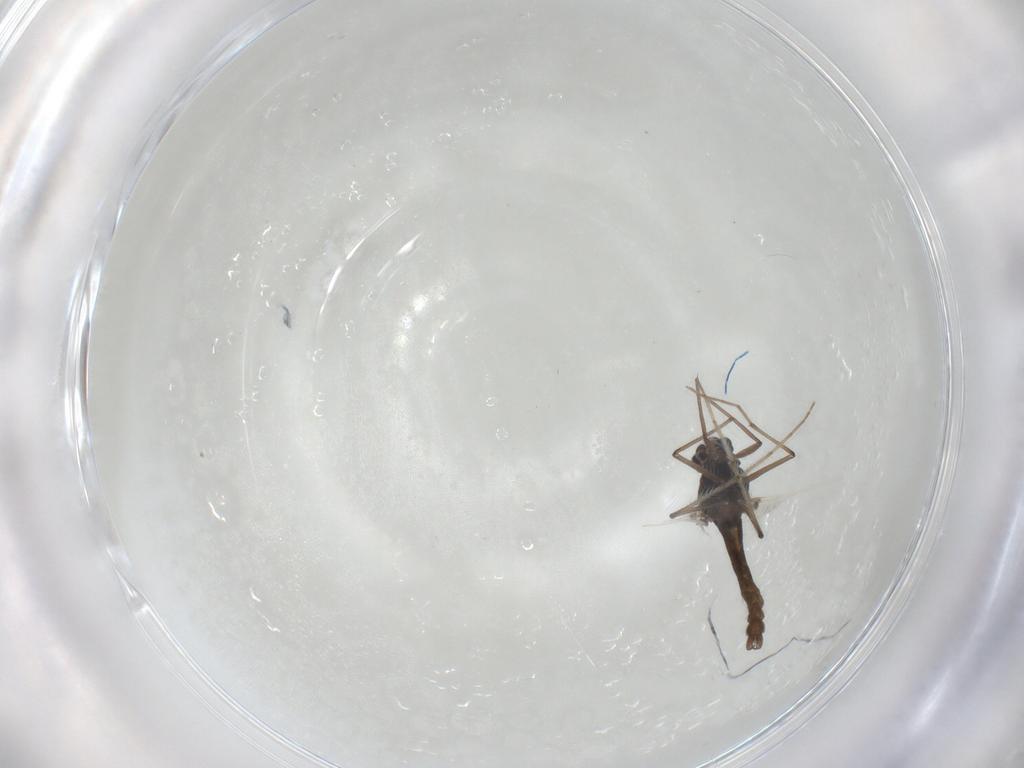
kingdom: Animalia
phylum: Arthropoda
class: Insecta
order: Diptera
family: Chironomidae
